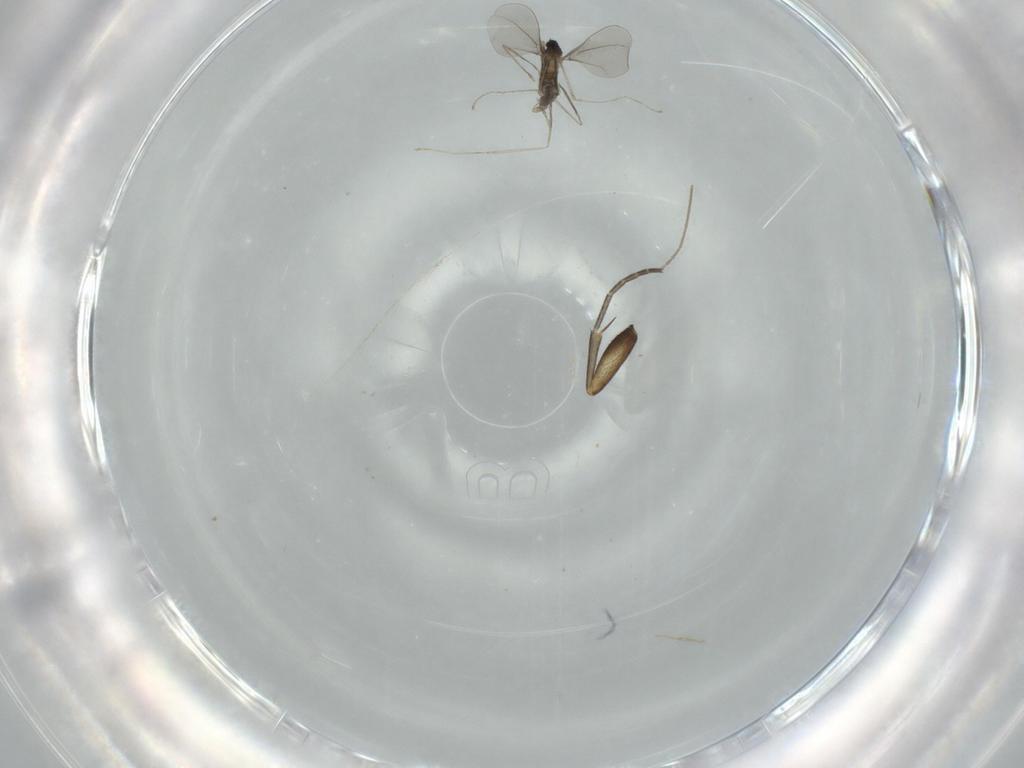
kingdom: Animalia
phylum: Arthropoda
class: Insecta
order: Diptera
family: Cecidomyiidae
